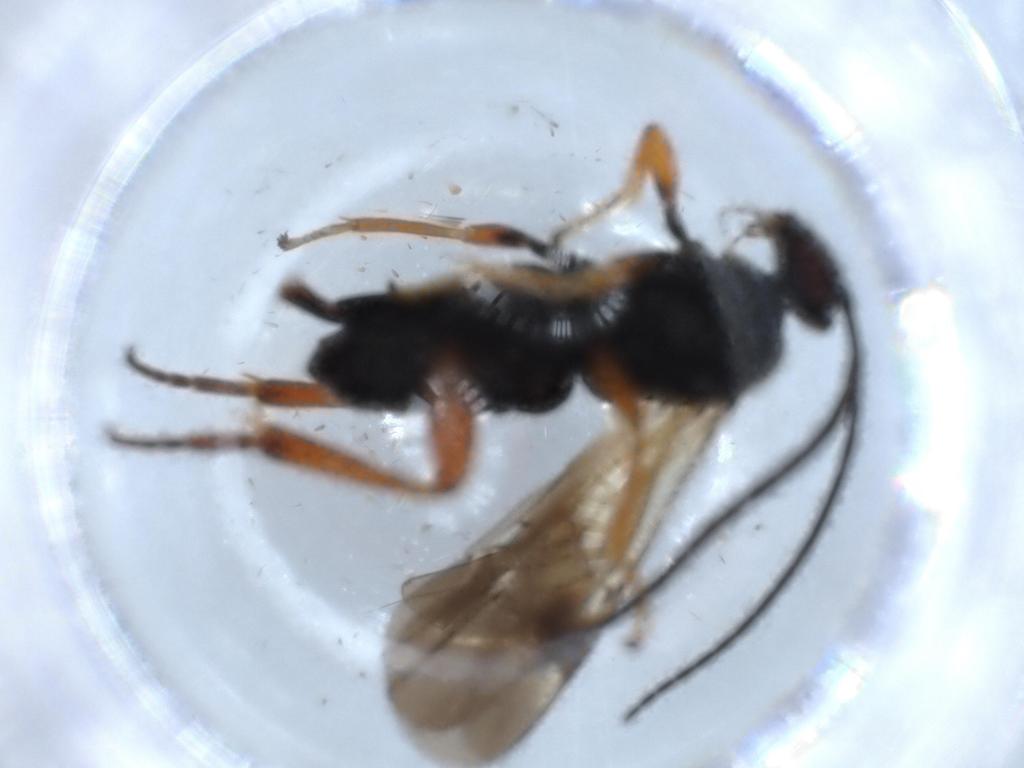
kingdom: Animalia
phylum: Arthropoda
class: Insecta
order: Hymenoptera
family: Braconidae
